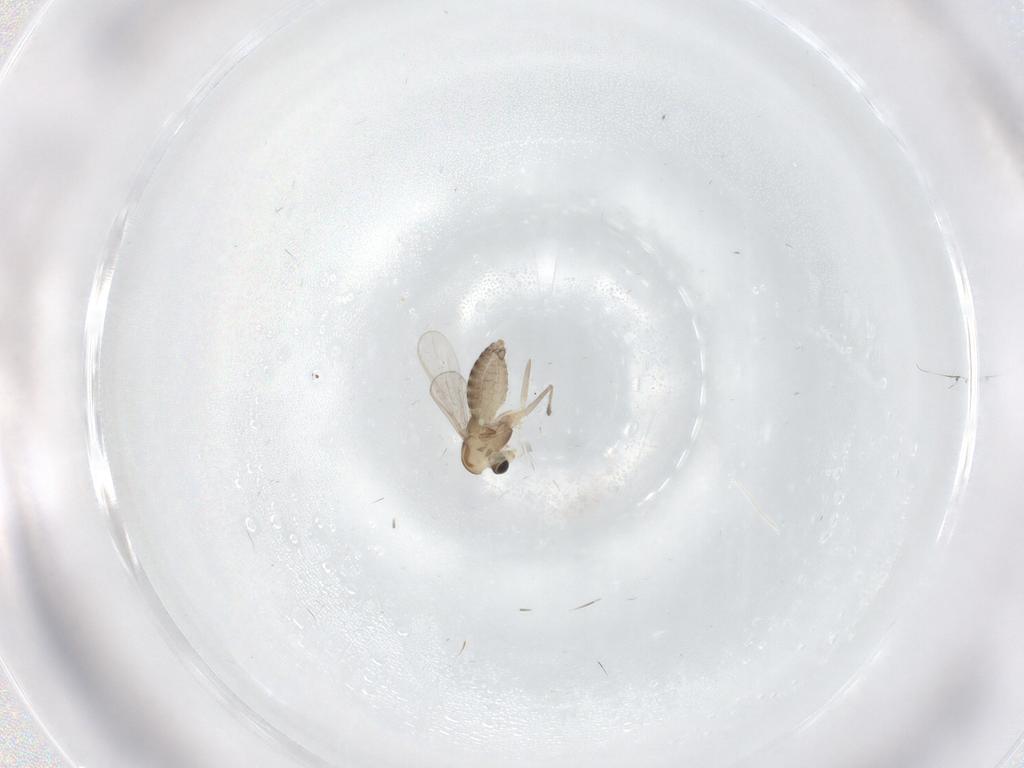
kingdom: Animalia
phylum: Arthropoda
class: Insecta
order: Diptera
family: Chironomidae
